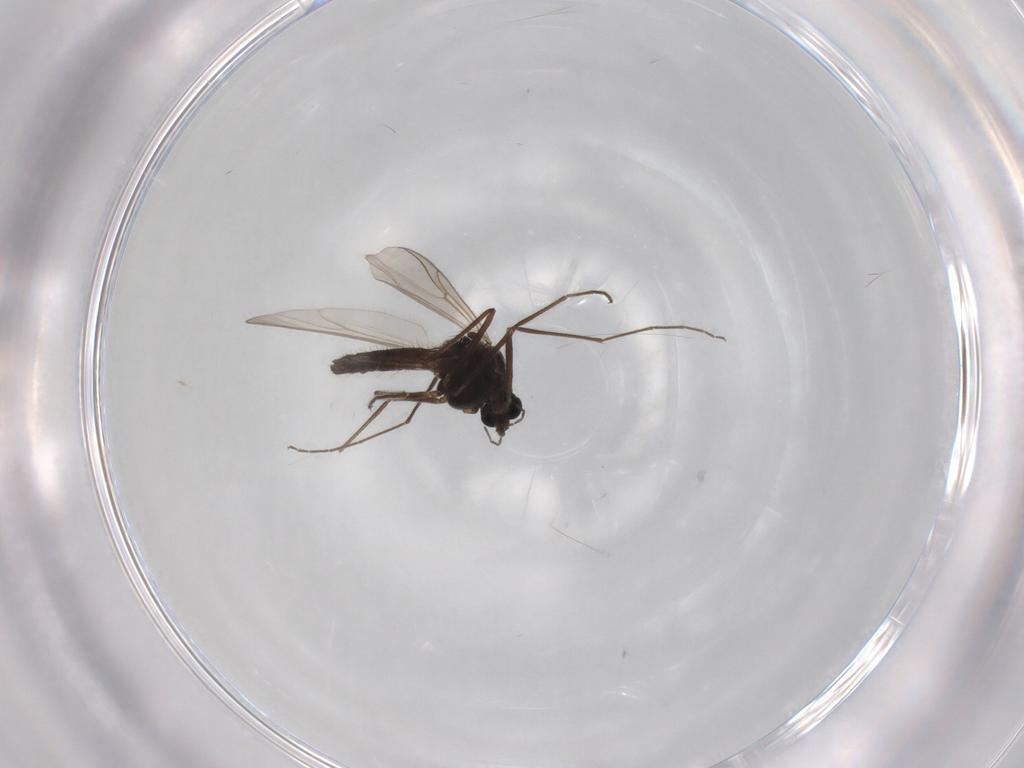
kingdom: Animalia
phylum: Arthropoda
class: Insecta
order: Diptera
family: Chironomidae
